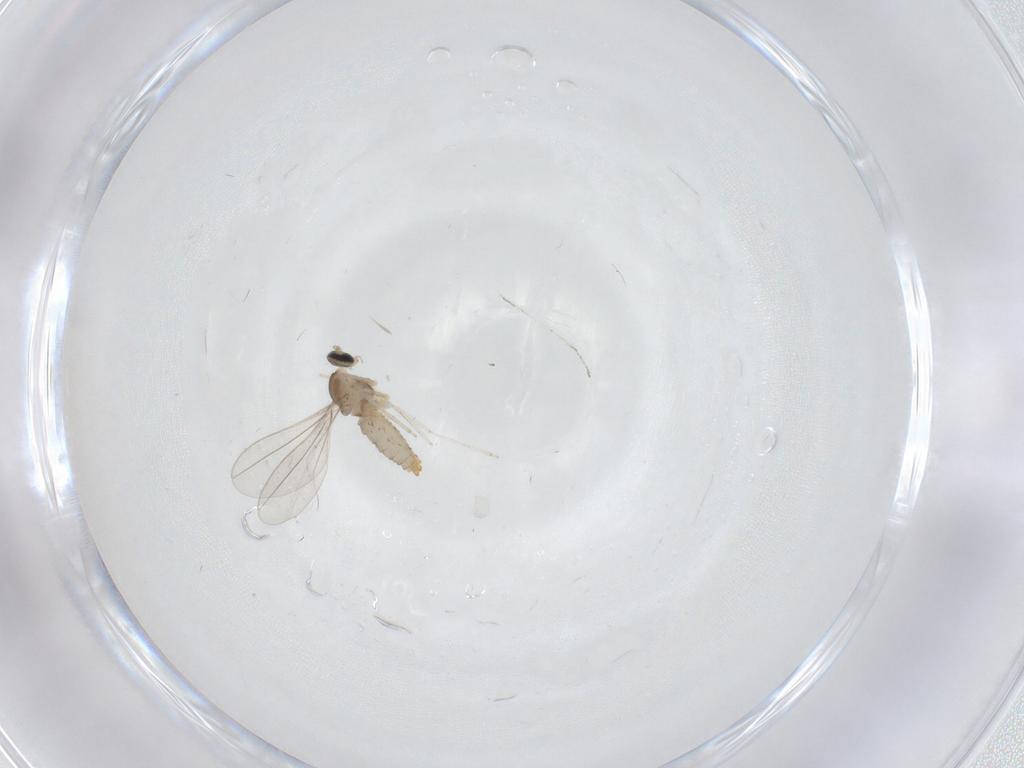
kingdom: Animalia
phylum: Arthropoda
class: Insecta
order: Diptera
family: Cecidomyiidae
